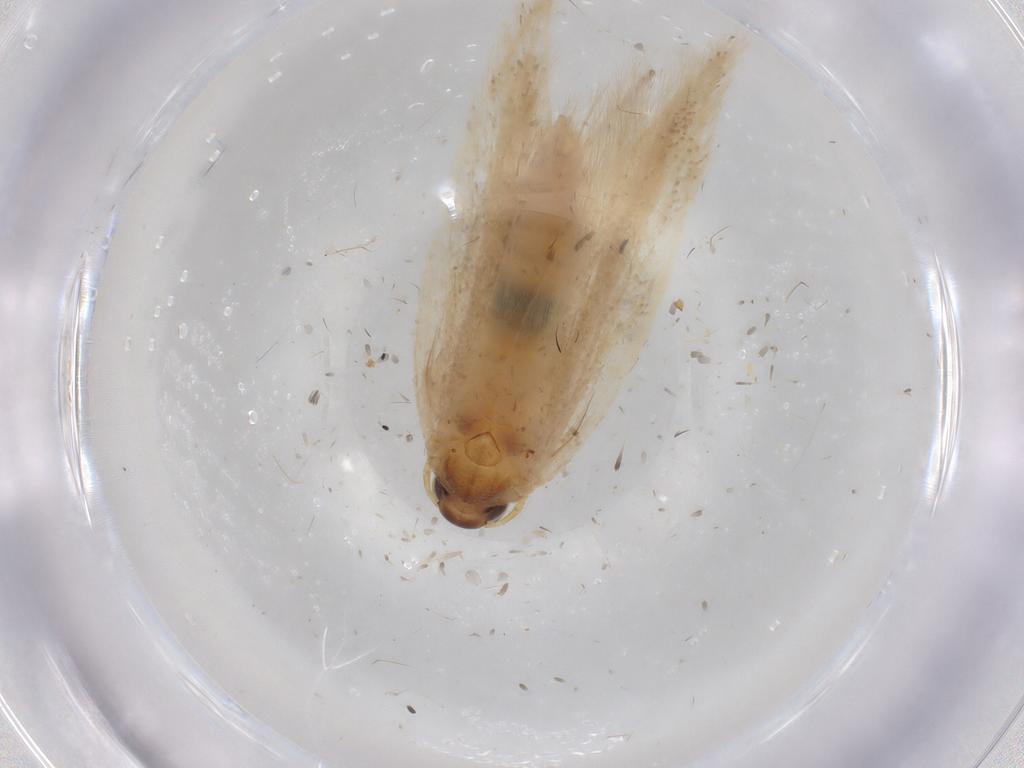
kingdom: Animalia
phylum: Arthropoda
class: Insecta
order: Lepidoptera
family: Gelechiidae
